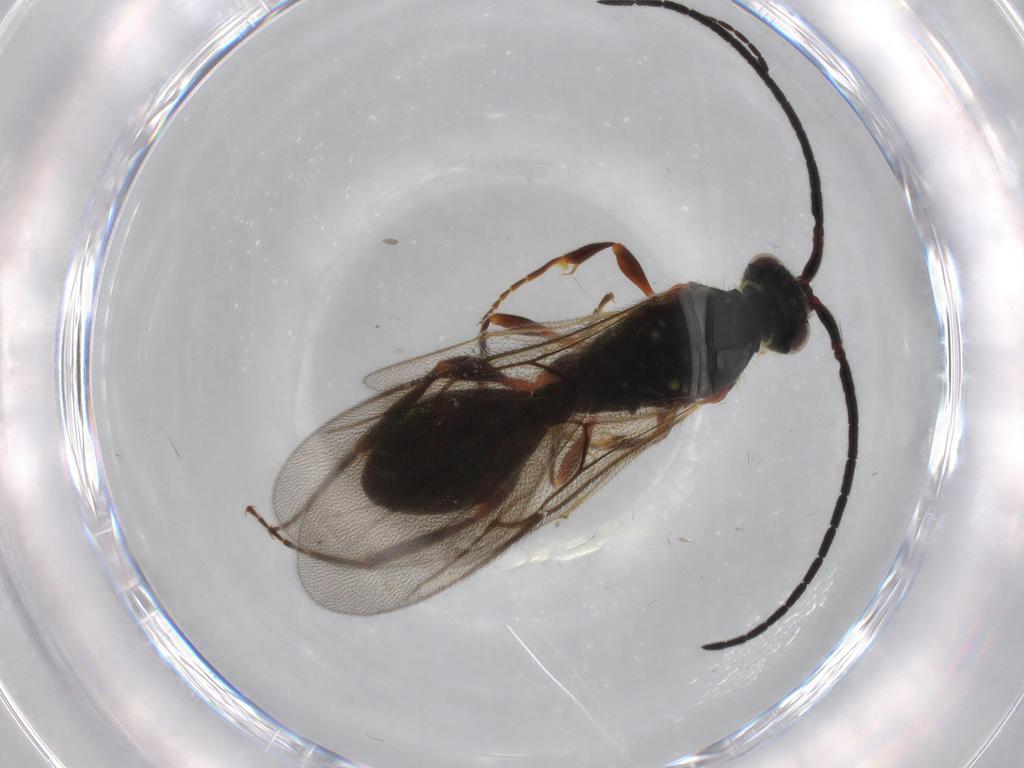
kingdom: Animalia
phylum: Arthropoda
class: Insecta
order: Hymenoptera
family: Diapriidae
